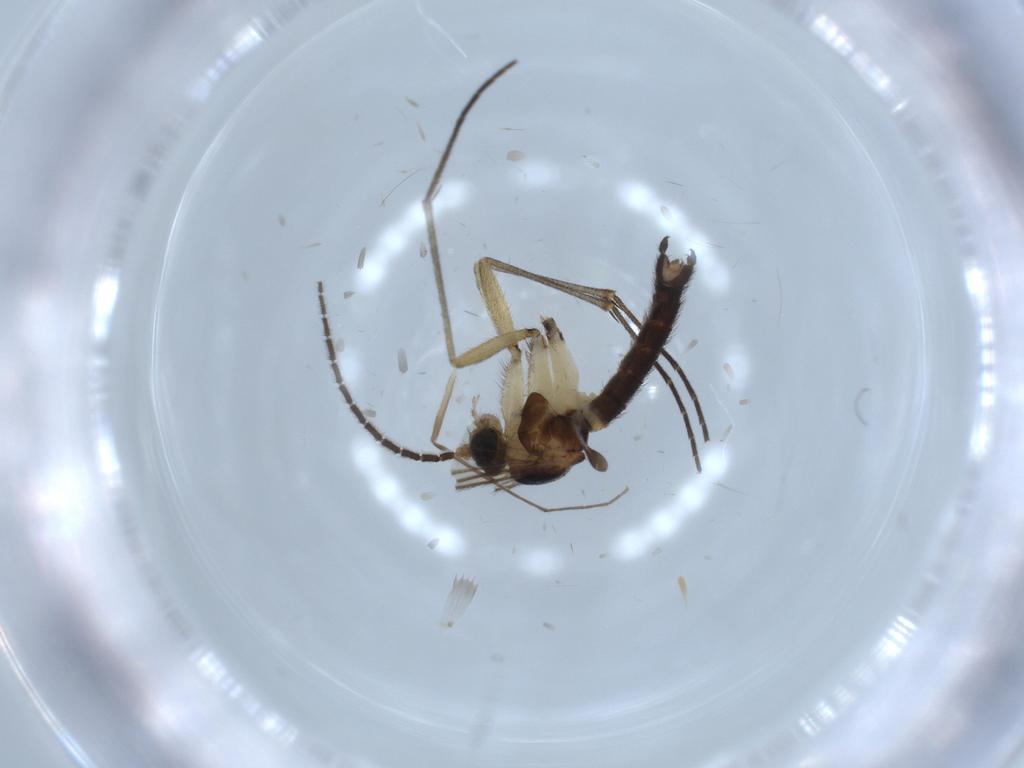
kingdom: Animalia
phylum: Arthropoda
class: Insecta
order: Diptera
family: Sciaridae
